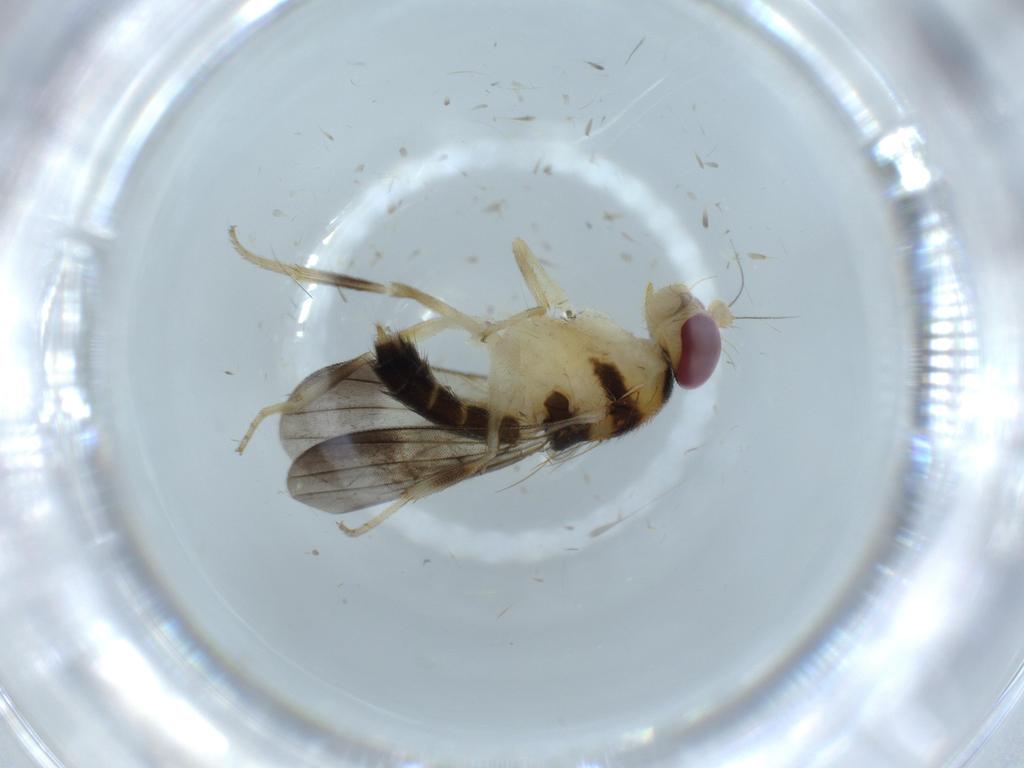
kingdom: Animalia
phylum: Arthropoda
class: Insecta
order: Diptera
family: Clusiidae
